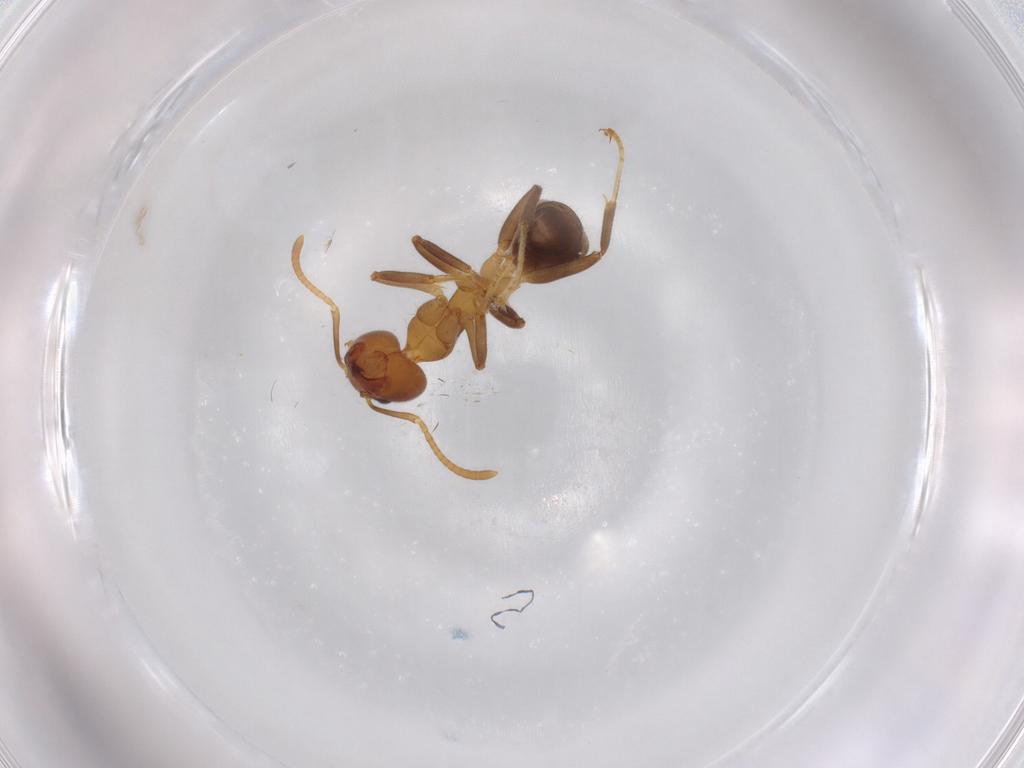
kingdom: Animalia
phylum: Arthropoda
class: Insecta
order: Hymenoptera
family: Formicidae
